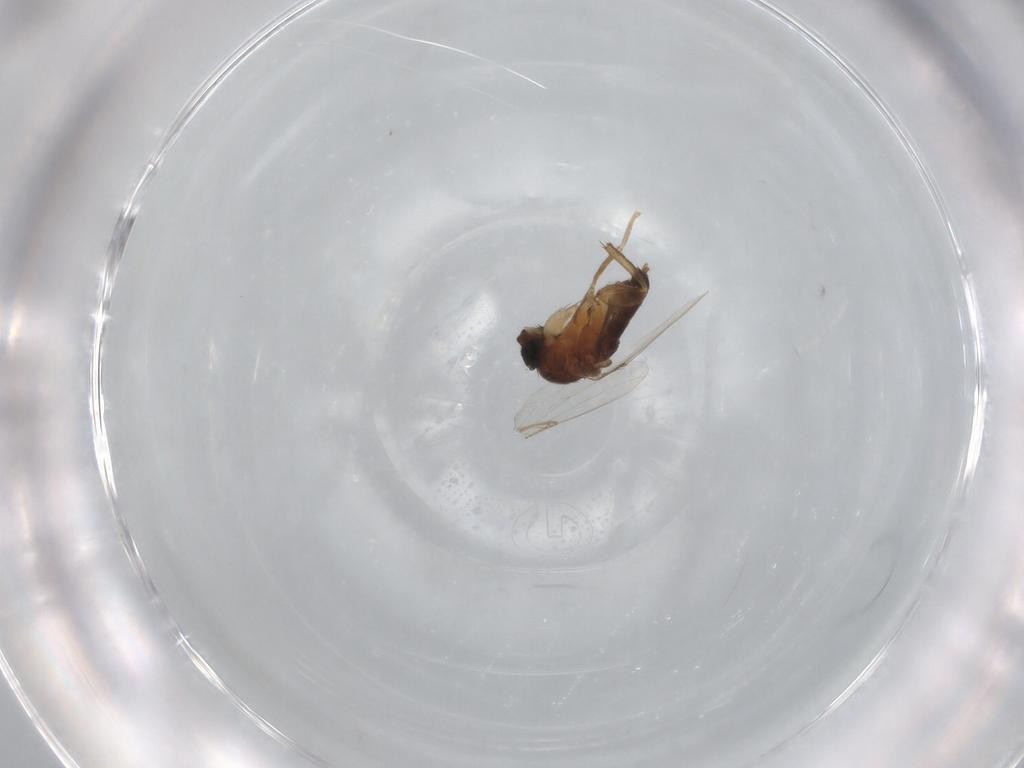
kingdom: Animalia
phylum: Arthropoda
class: Insecta
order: Diptera
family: Phoridae
